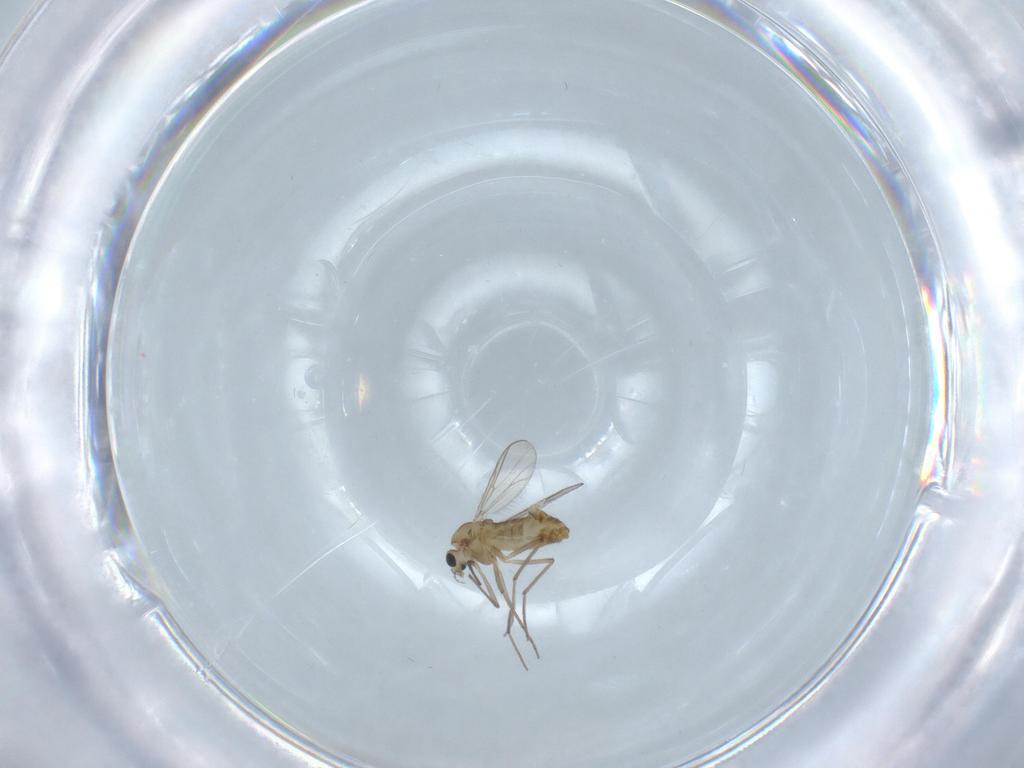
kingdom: Animalia
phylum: Arthropoda
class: Insecta
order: Diptera
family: Chironomidae
